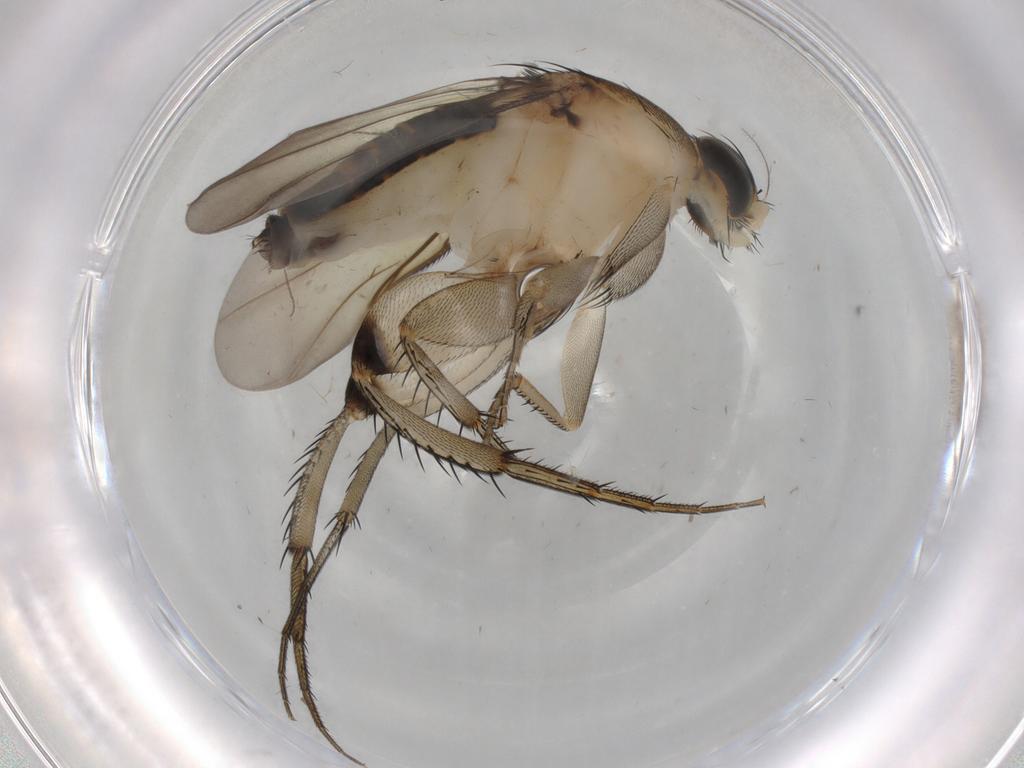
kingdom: Animalia
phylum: Arthropoda
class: Insecta
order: Diptera
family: Phoridae
